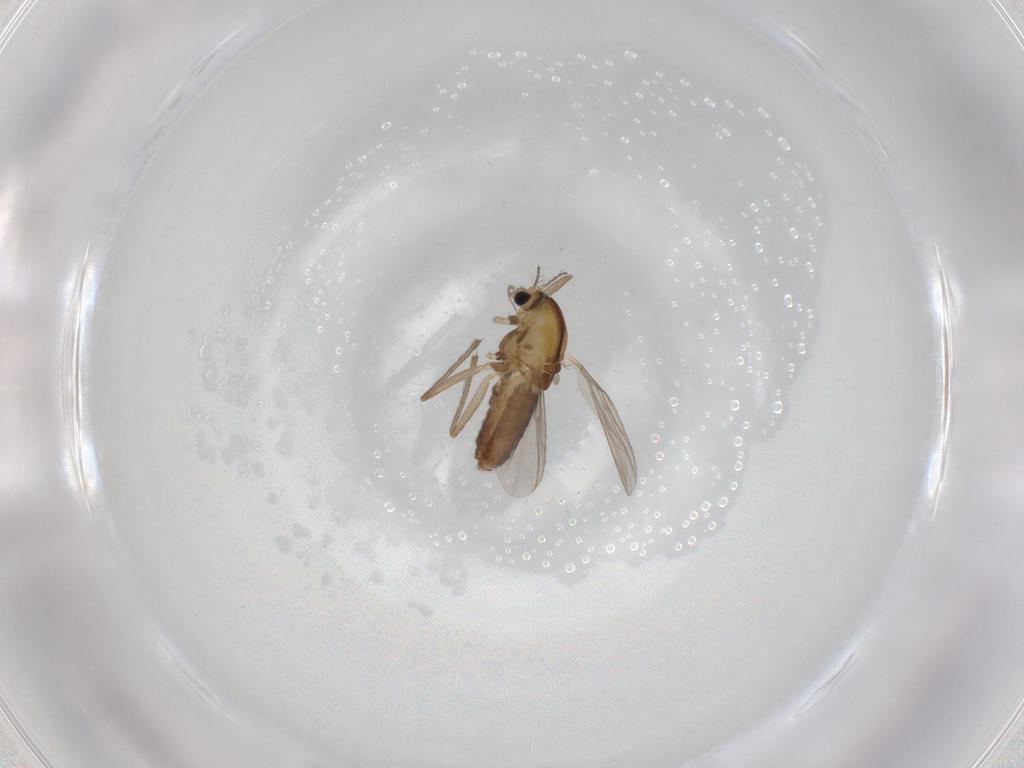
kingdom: Animalia
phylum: Arthropoda
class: Insecta
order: Diptera
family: Chironomidae
